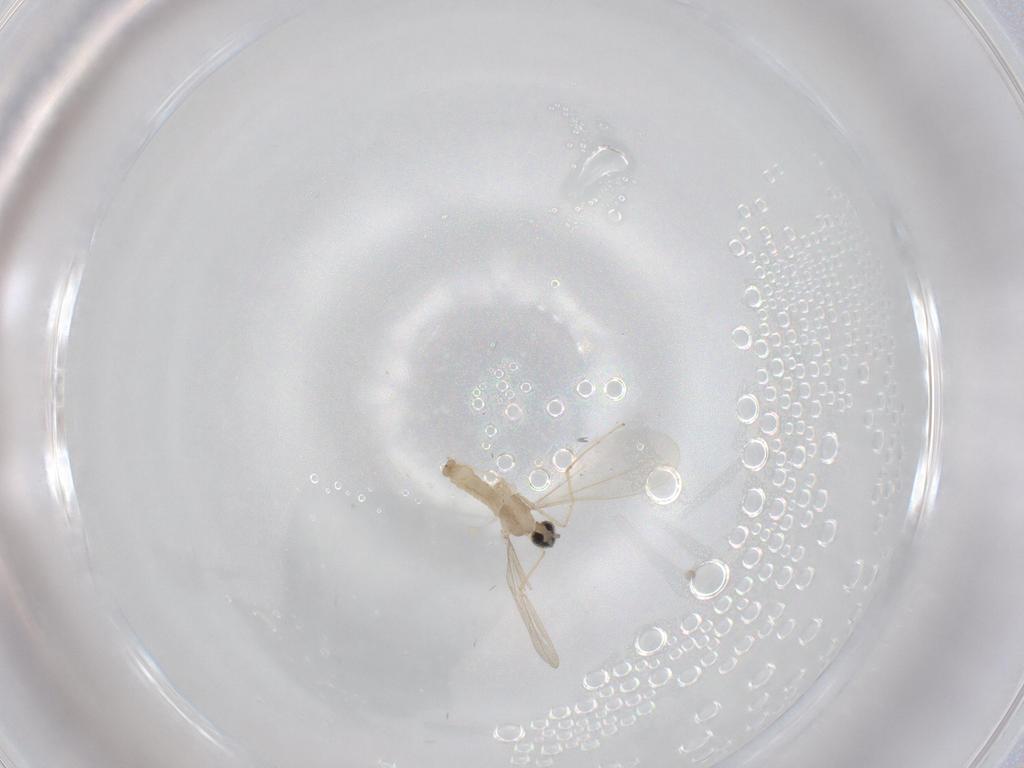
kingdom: Animalia
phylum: Arthropoda
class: Insecta
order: Diptera
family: Cecidomyiidae
